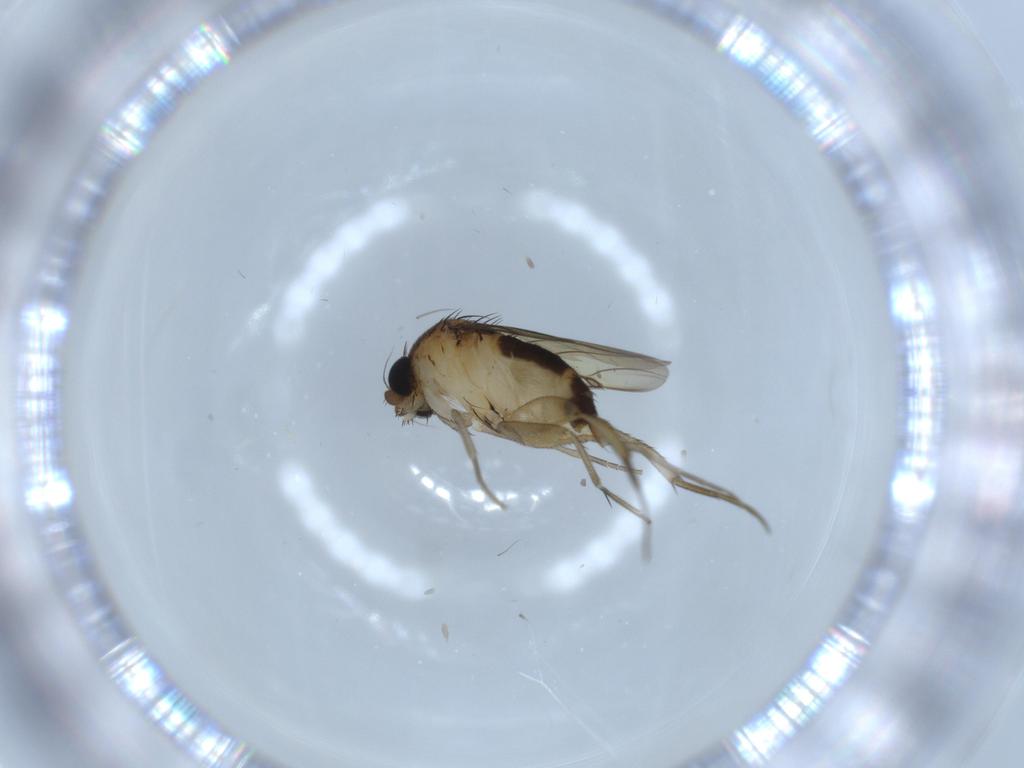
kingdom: Animalia
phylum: Arthropoda
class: Insecta
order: Diptera
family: Phoridae
